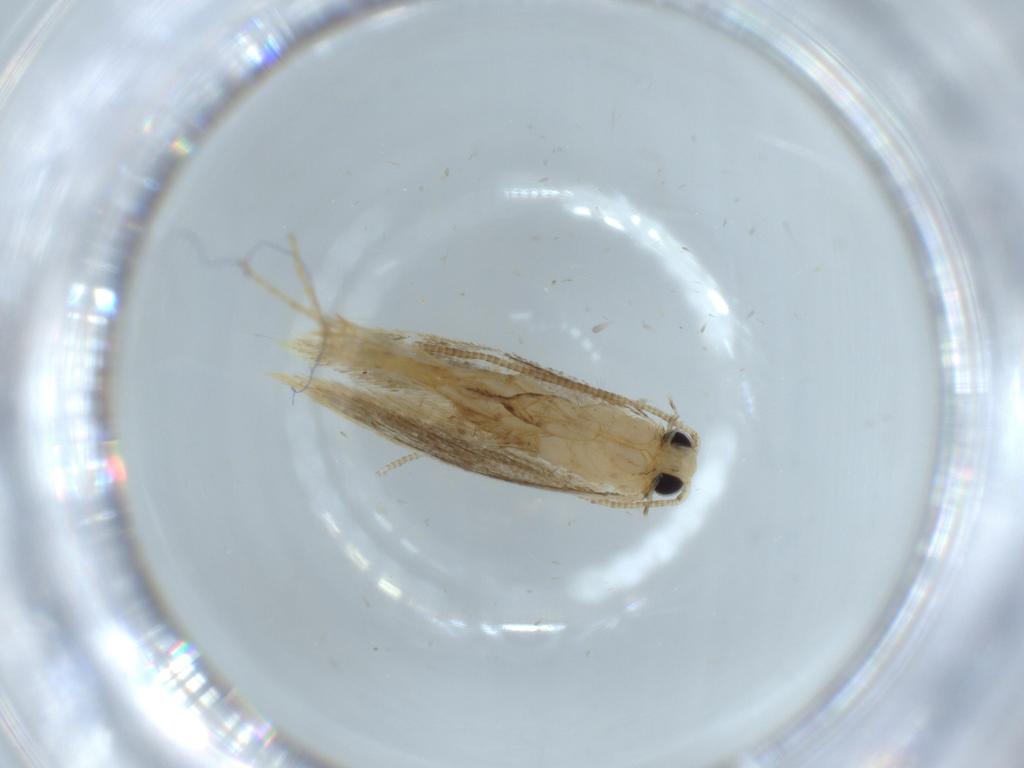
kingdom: Animalia
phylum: Arthropoda
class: Insecta
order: Lepidoptera
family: Tineidae
